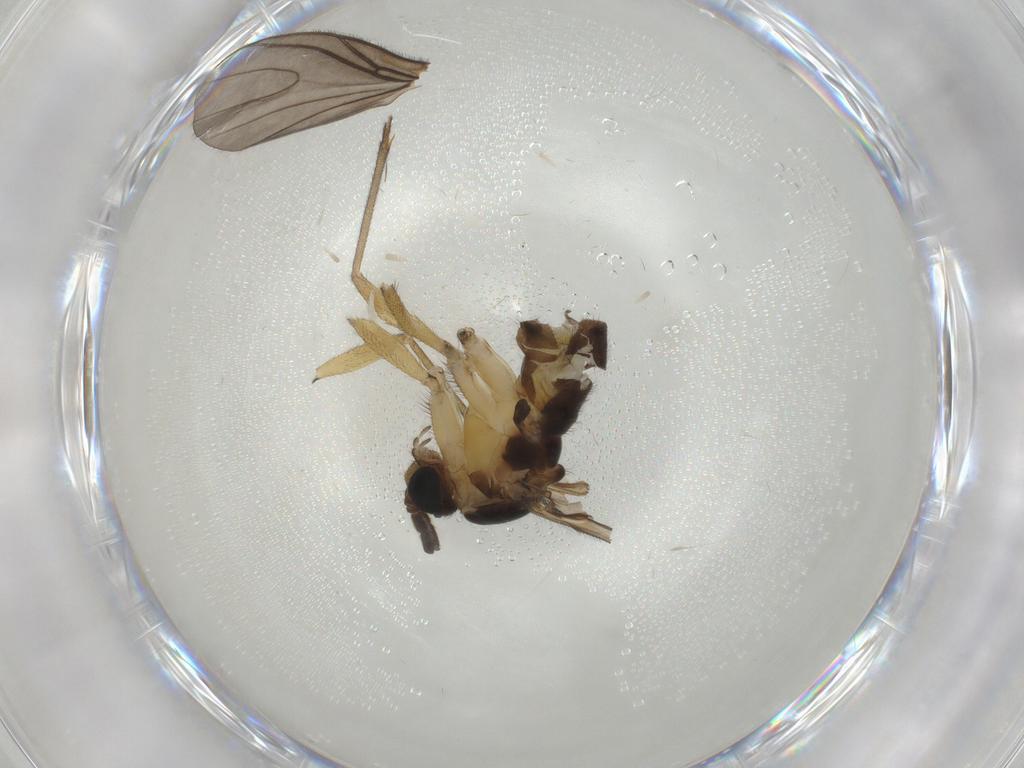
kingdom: Animalia
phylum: Arthropoda
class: Insecta
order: Diptera
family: Sciaridae
